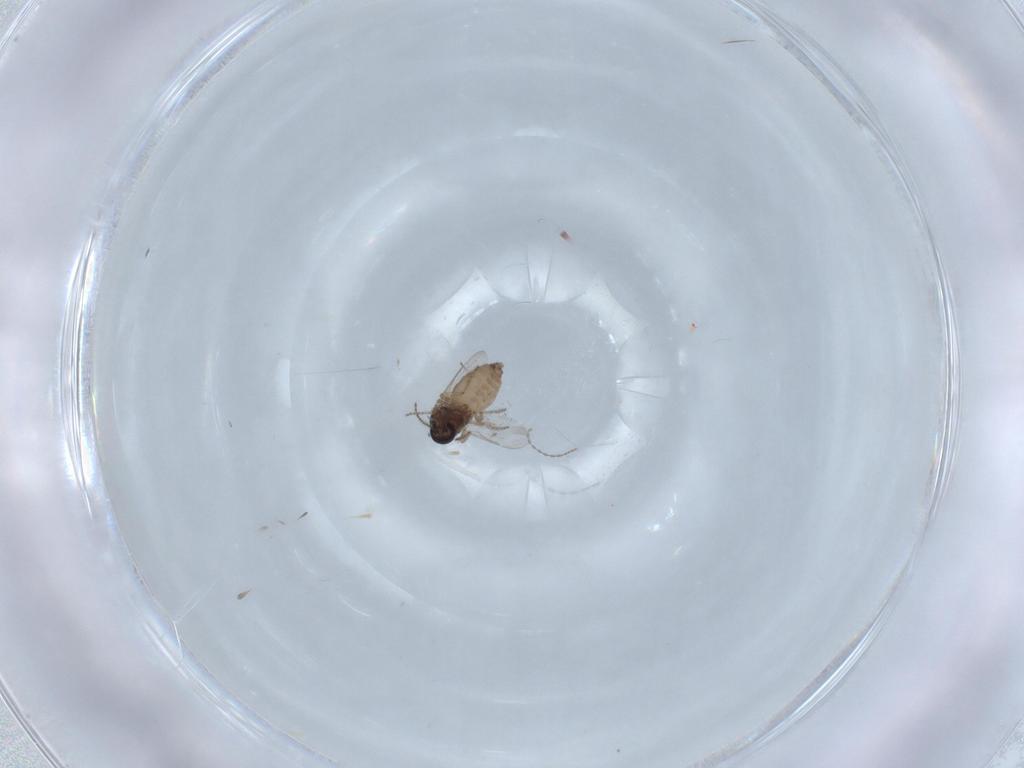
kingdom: Animalia
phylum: Arthropoda
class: Insecta
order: Diptera
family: Ceratopogonidae
